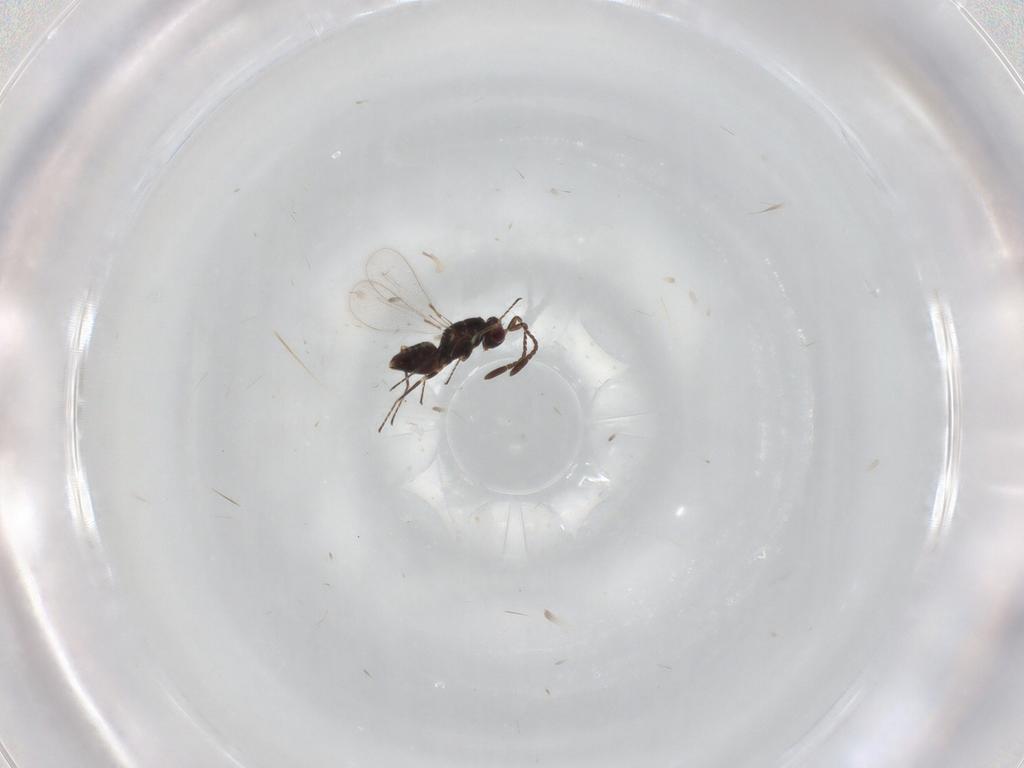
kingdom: Animalia
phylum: Arthropoda
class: Insecta
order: Hymenoptera
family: Mymaridae
